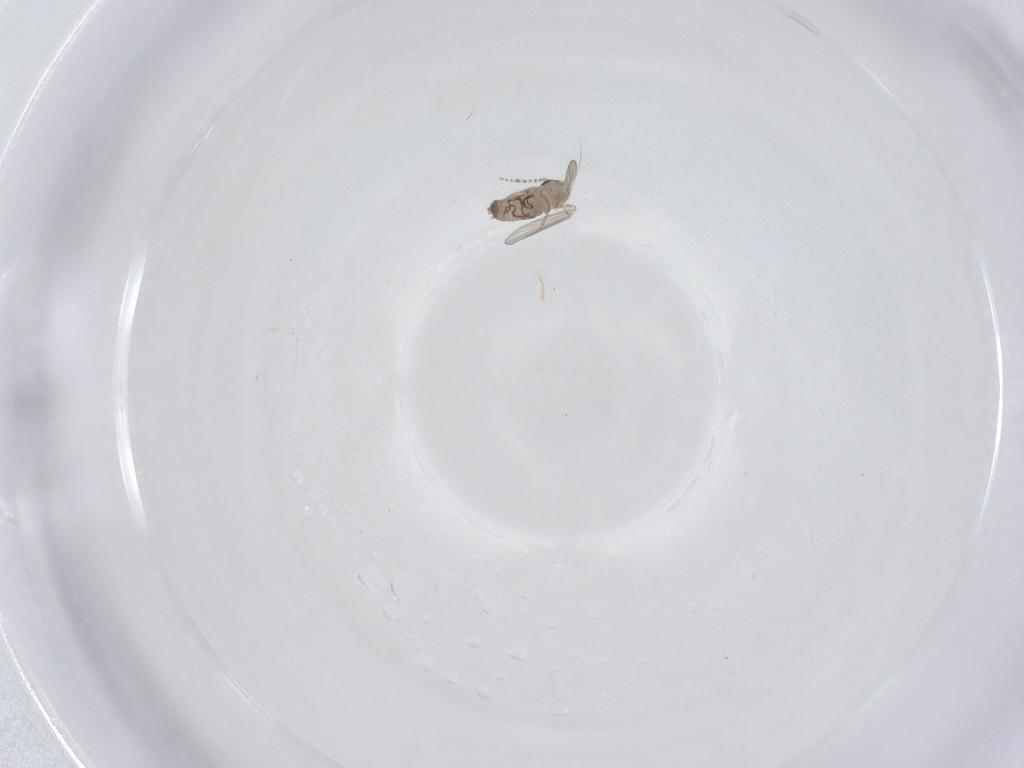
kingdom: Animalia
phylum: Arthropoda
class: Insecta
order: Diptera
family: Psychodidae
